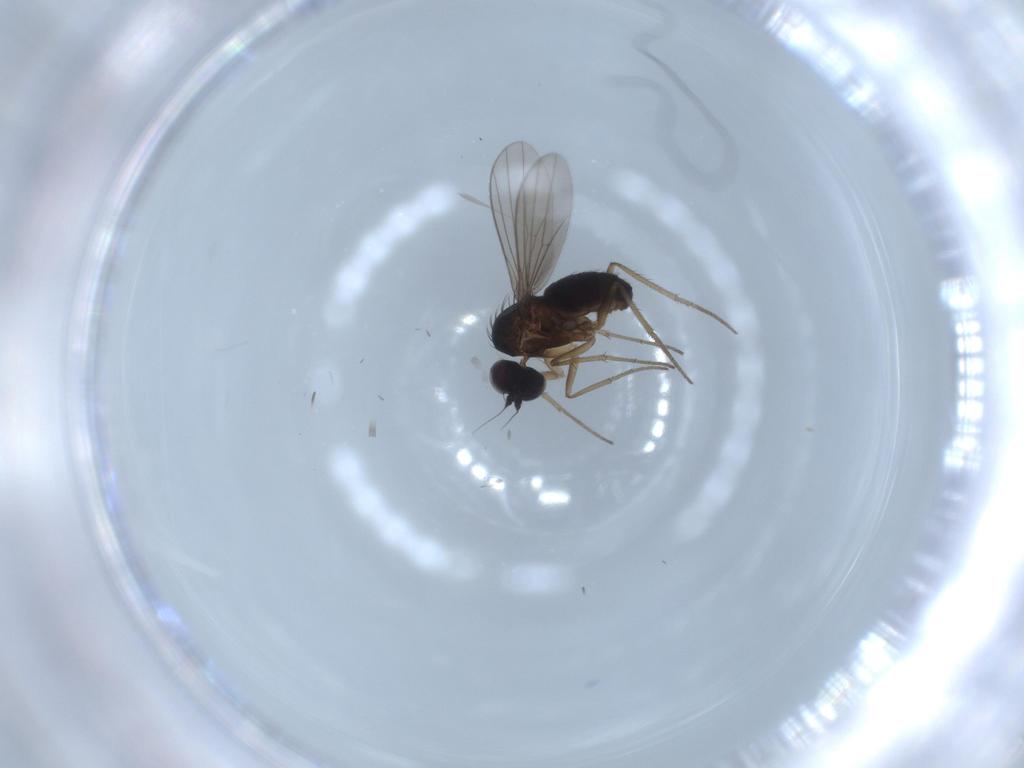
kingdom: Animalia
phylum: Arthropoda
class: Insecta
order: Diptera
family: Dolichopodidae
